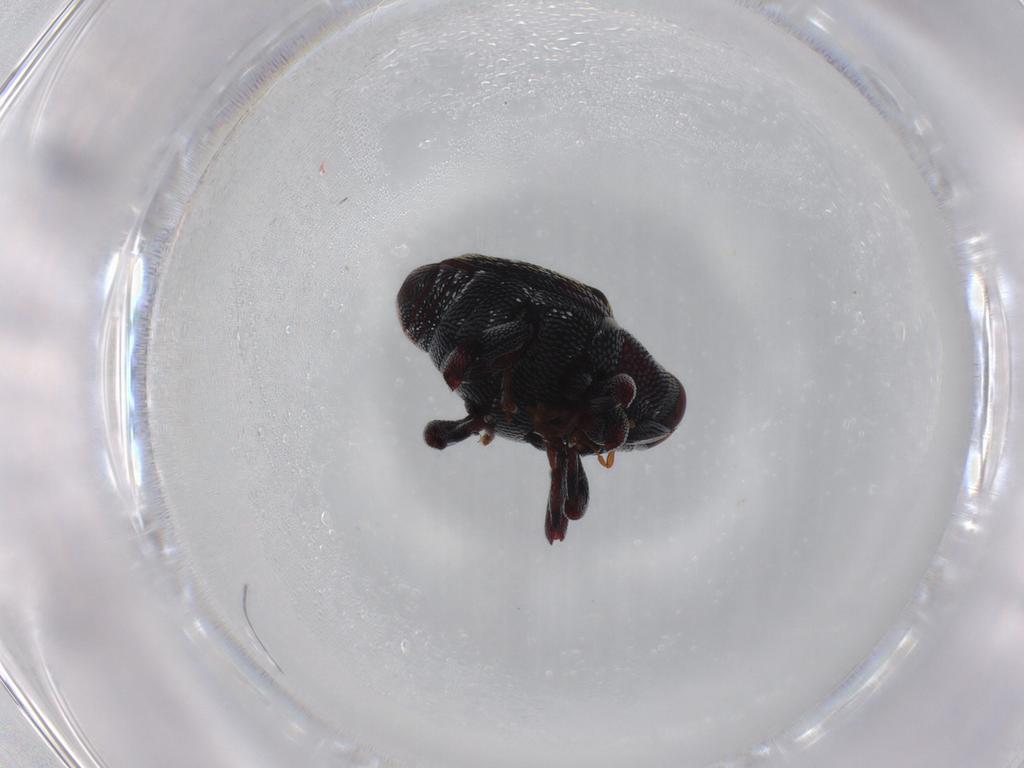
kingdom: Animalia
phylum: Arthropoda
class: Insecta
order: Coleoptera
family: Curculionidae
